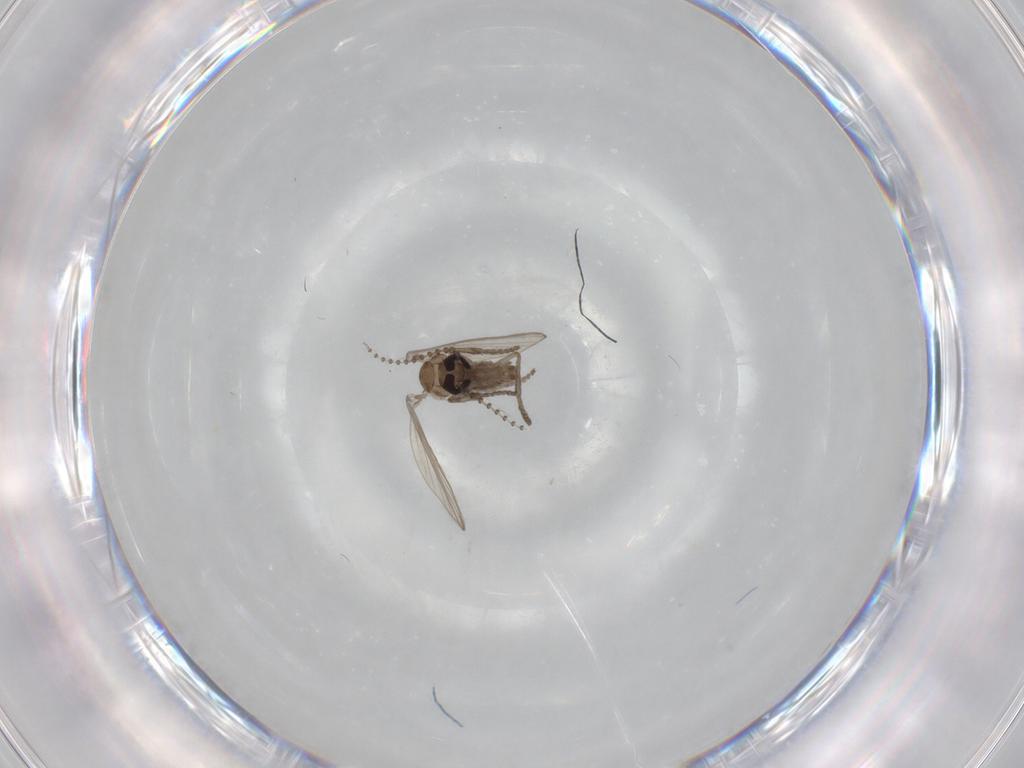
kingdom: Animalia
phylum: Arthropoda
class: Insecta
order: Diptera
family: Psychodidae
